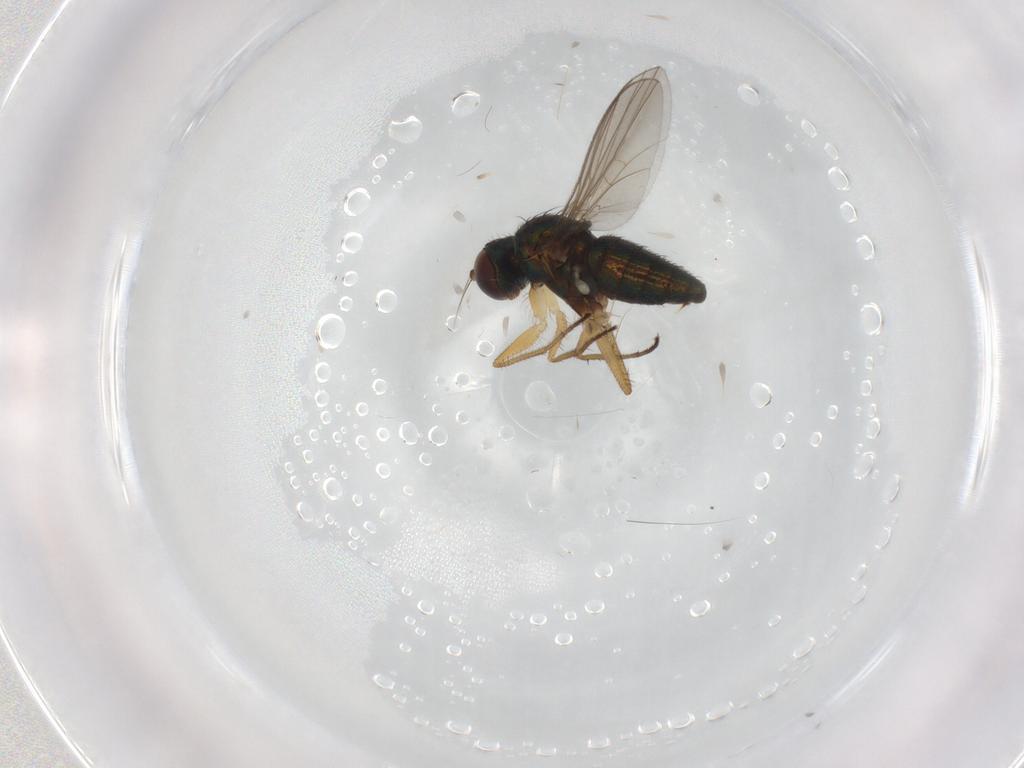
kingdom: Animalia
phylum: Arthropoda
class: Insecta
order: Diptera
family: Dolichopodidae
